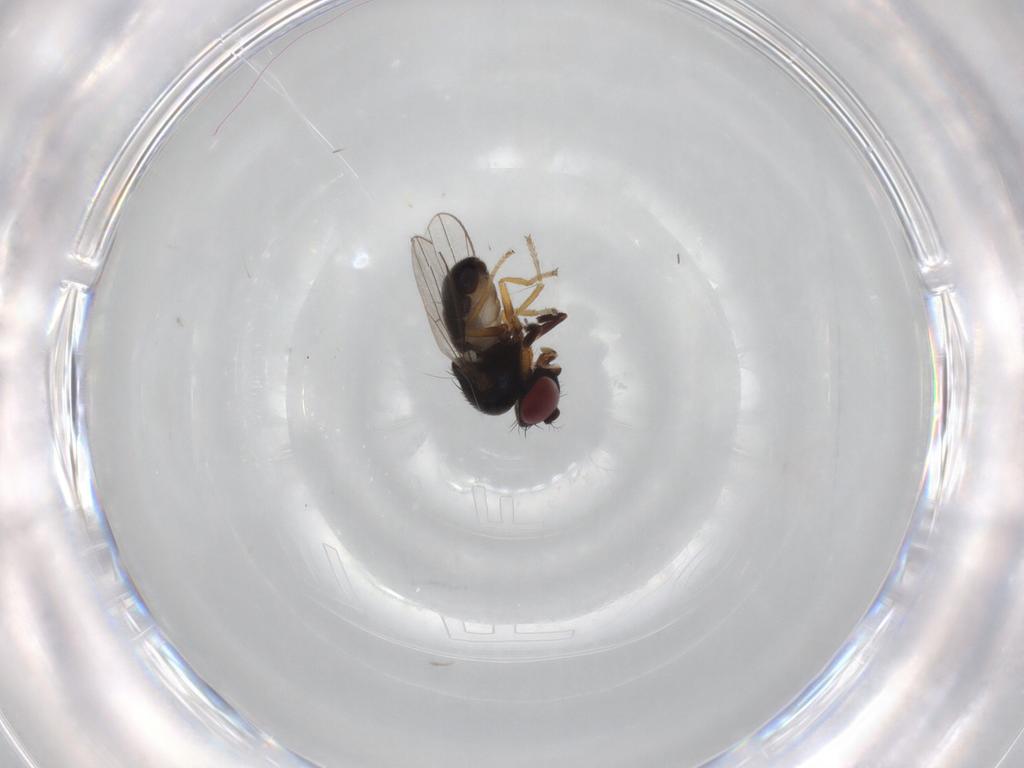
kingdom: Animalia
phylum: Arthropoda
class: Insecta
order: Diptera
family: Ephydridae
